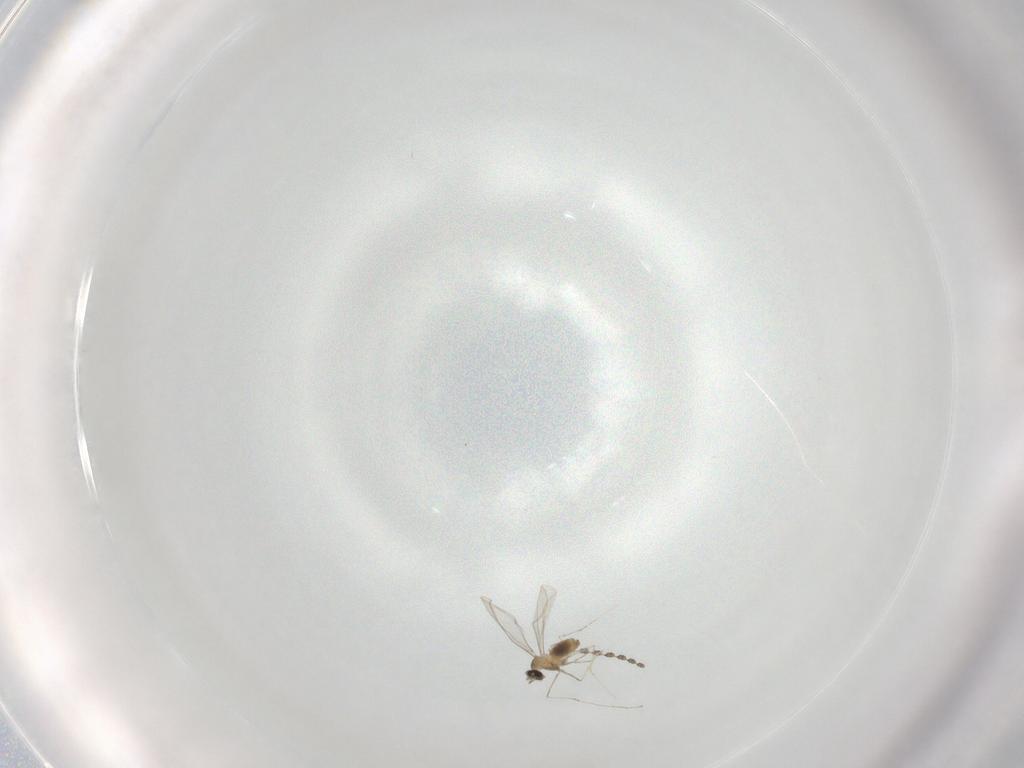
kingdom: Animalia
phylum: Arthropoda
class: Insecta
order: Diptera
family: Cecidomyiidae
